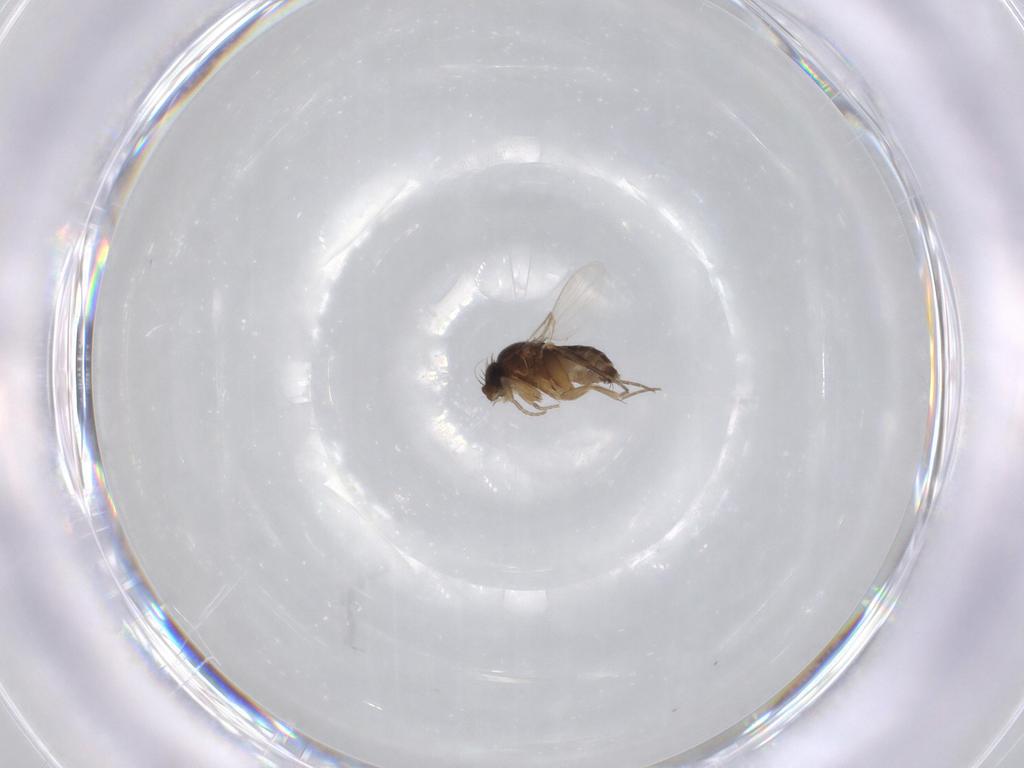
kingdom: Animalia
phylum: Arthropoda
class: Insecta
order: Diptera
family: Phoridae
